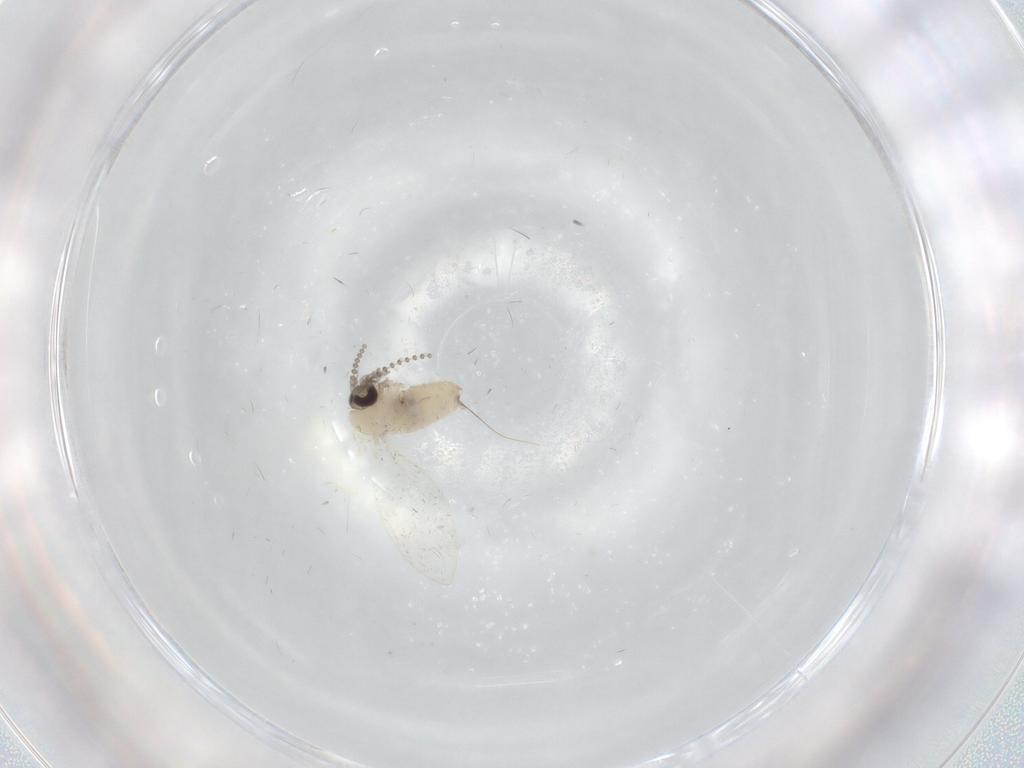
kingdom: Animalia
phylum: Arthropoda
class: Insecta
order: Diptera
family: Psychodidae
